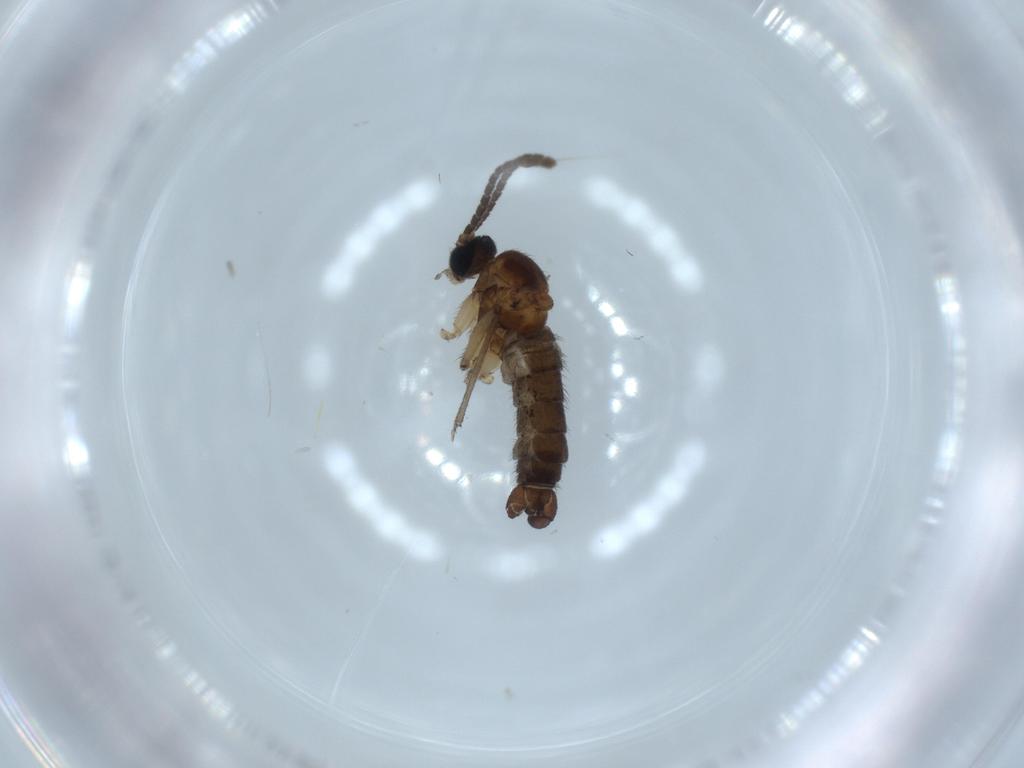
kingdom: Animalia
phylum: Arthropoda
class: Insecta
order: Diptera
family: Sciaridae
